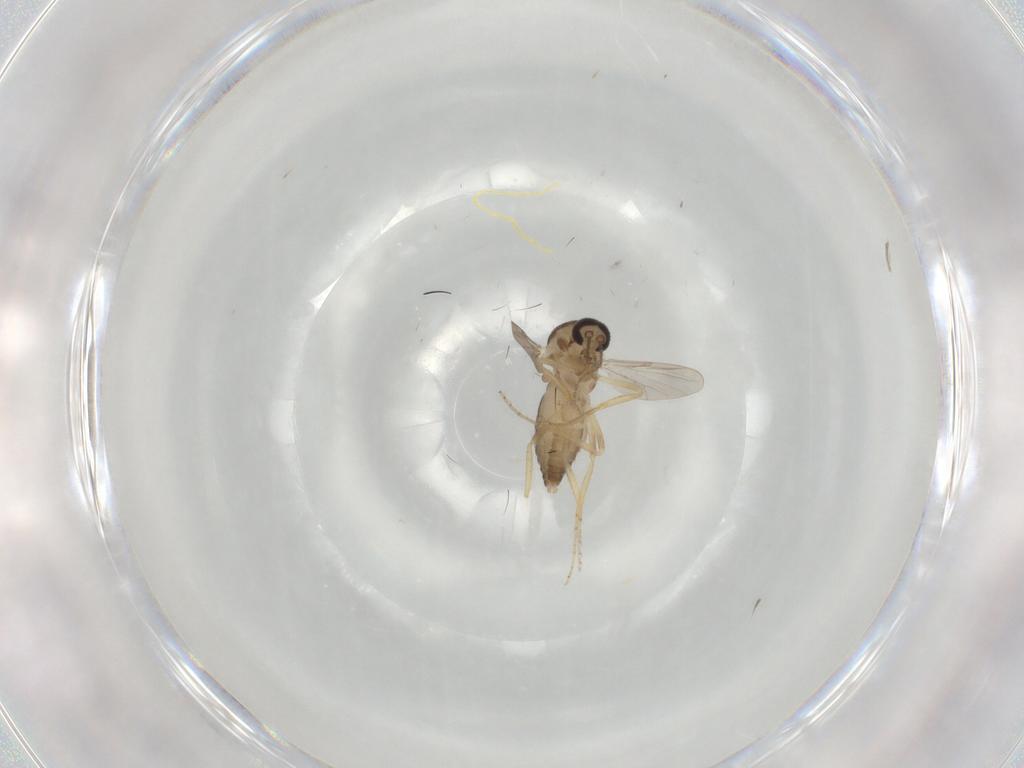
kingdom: Animalia
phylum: Arthropoda
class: Insecta
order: Diptera
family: Ceratopogonidae
